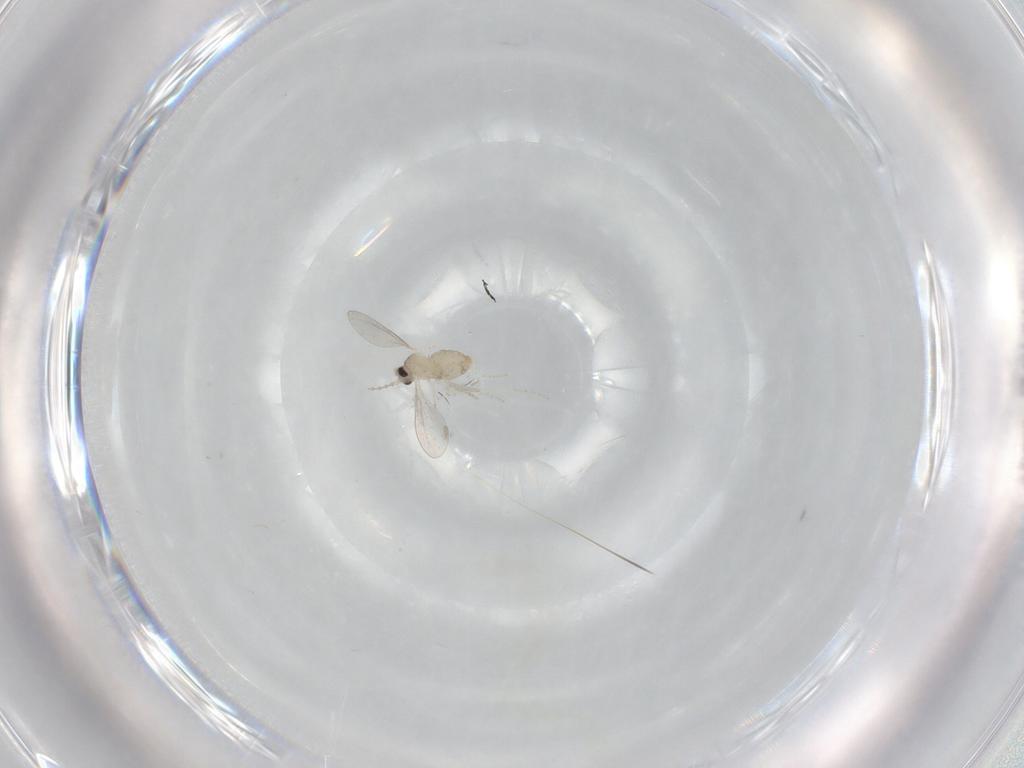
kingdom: Animalia
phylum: Arthropoda
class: Insecta
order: Diptera
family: Cecidomyiidae
